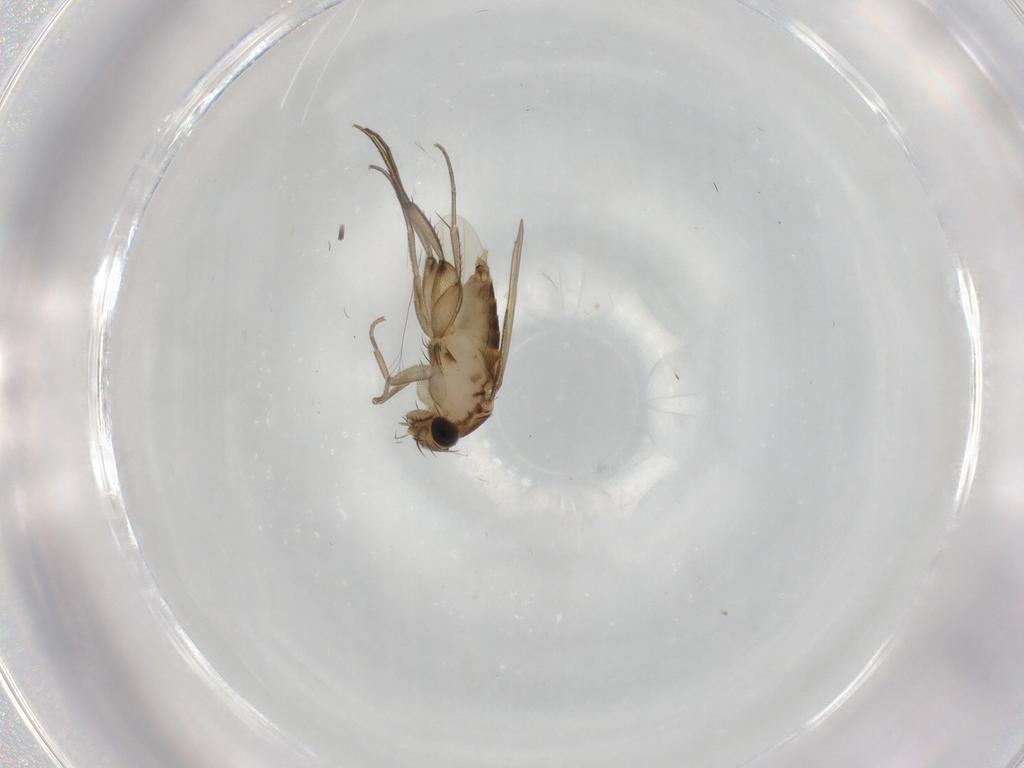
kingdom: Animalia
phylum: Arthropoda
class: Insecta
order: Diptera
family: Phoridae
